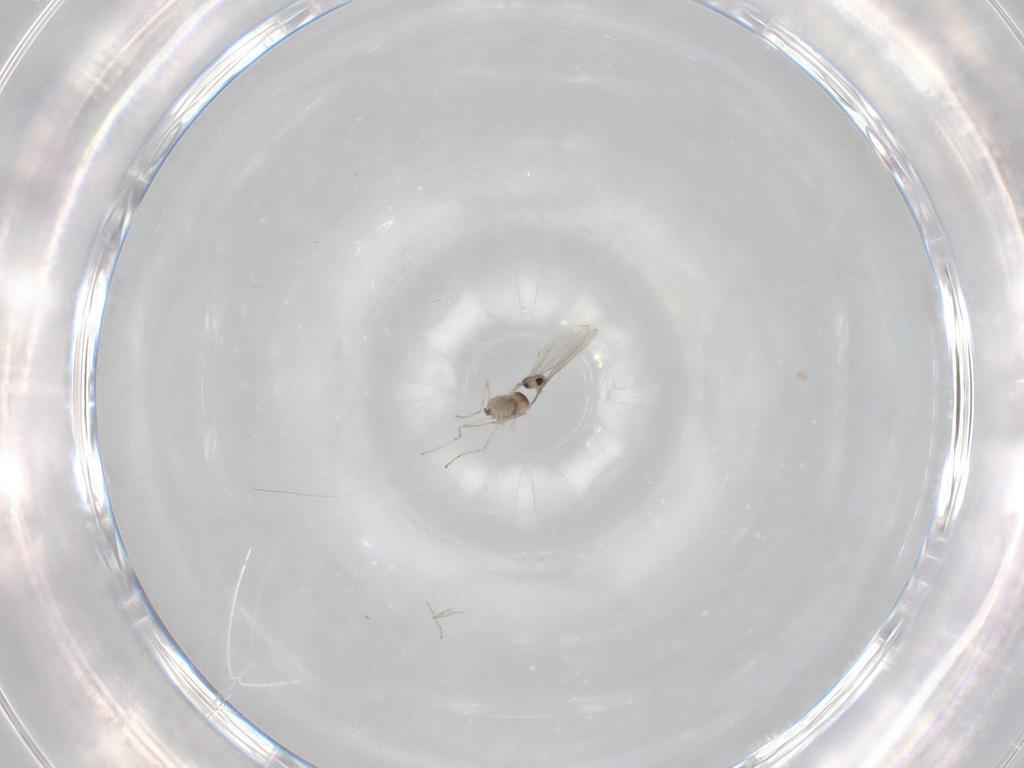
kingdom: Animalia
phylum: Arthropoda
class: Insecta
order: Diptera
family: Cecidomyiidae
